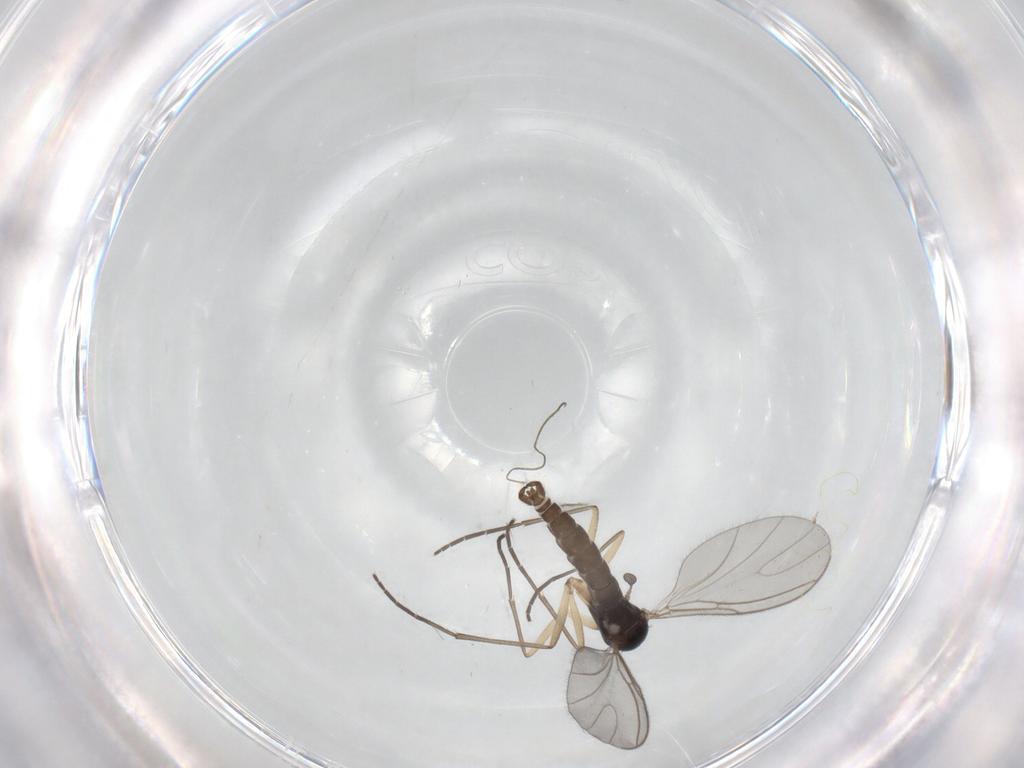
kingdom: Animalia
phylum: Arthropoda
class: Insecta
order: Diptera
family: Sciaridae
